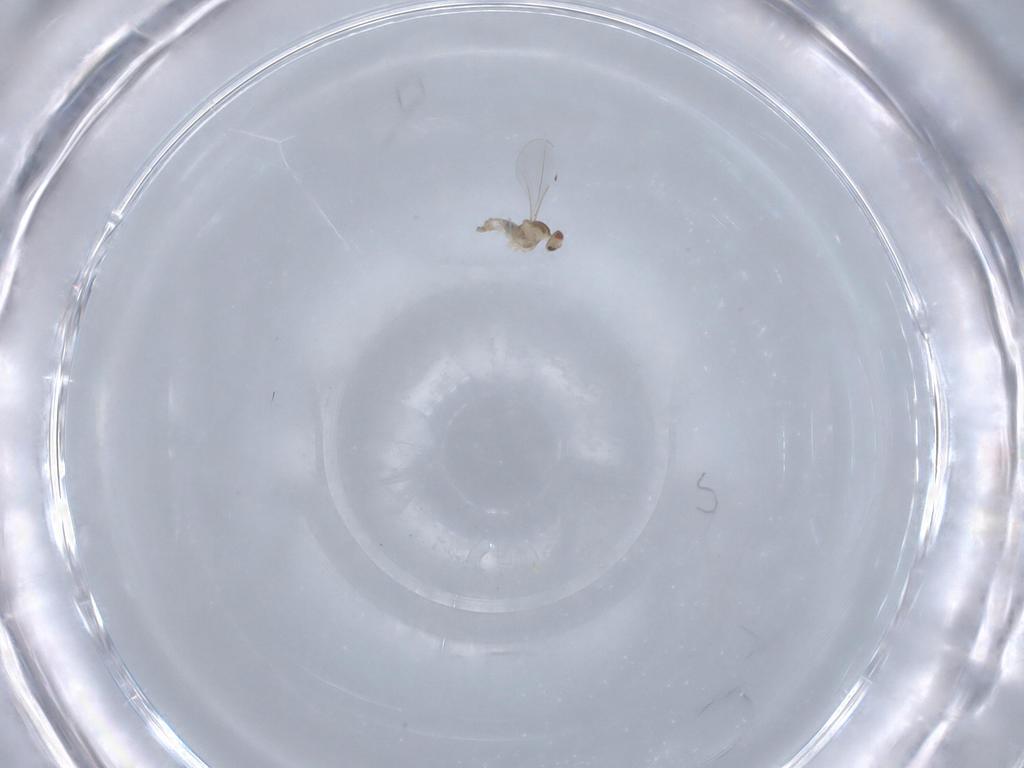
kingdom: Animalia
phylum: Arthropoda
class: Insecta
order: Diptera
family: Cecidomyiidae
